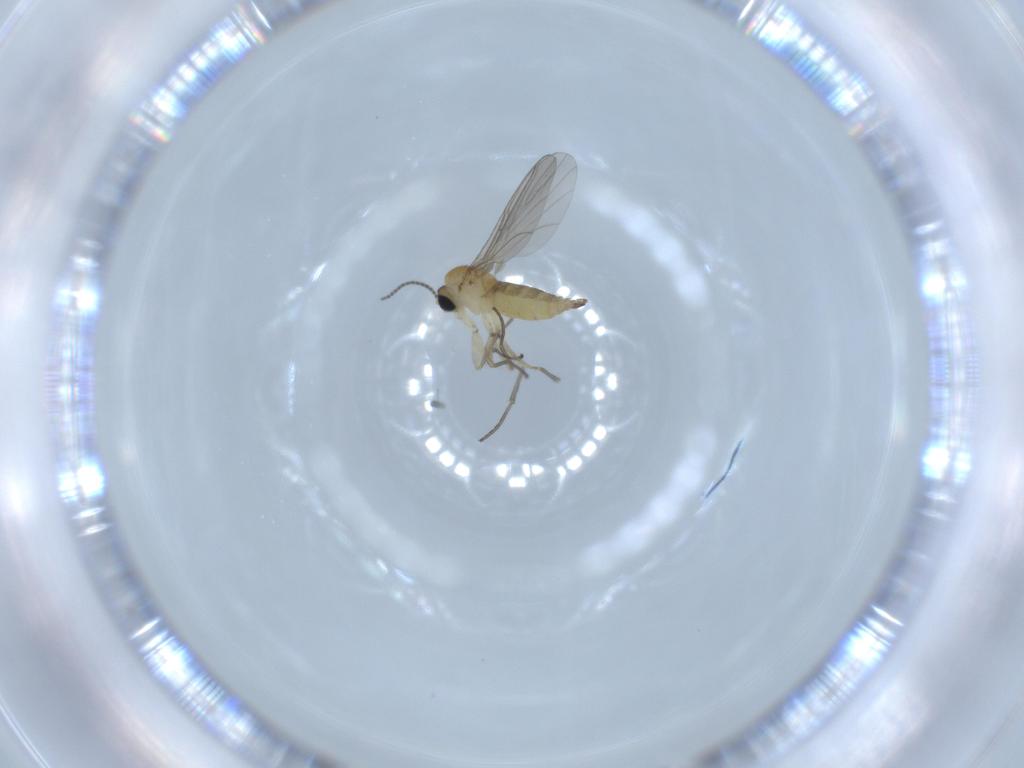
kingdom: Animalia
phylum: Arthropoda
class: Insecta
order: Diptera
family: Sciaridae
